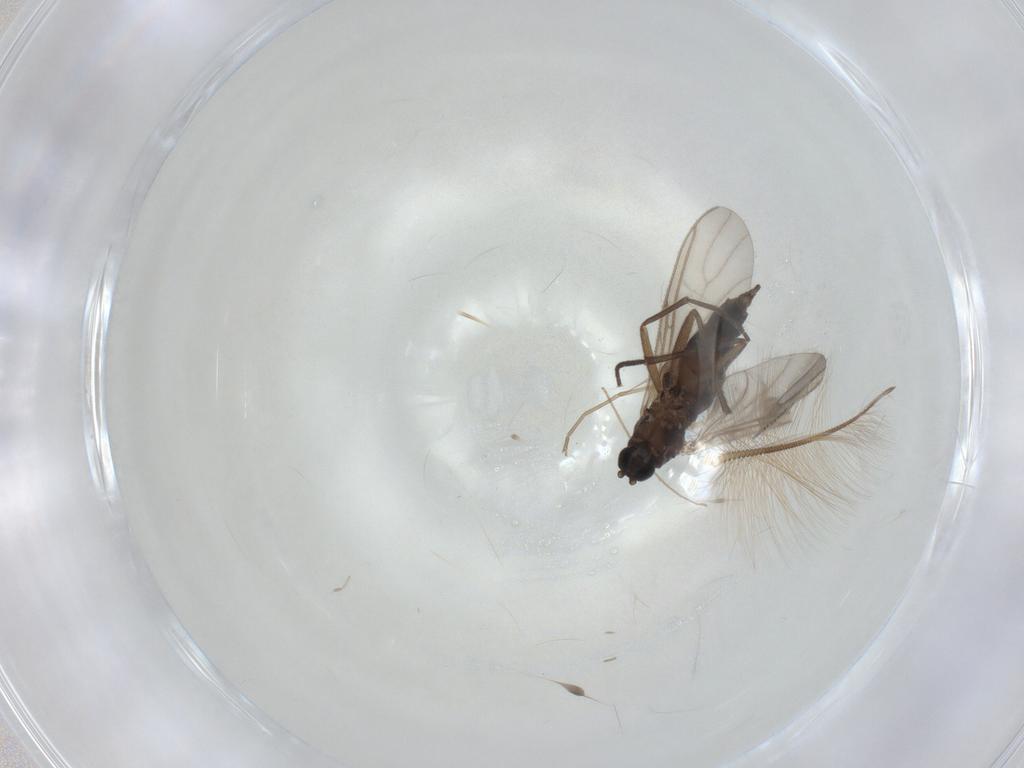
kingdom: Animalia
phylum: Arthropoda
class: Insecta
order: Diptera
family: Sciaridae
